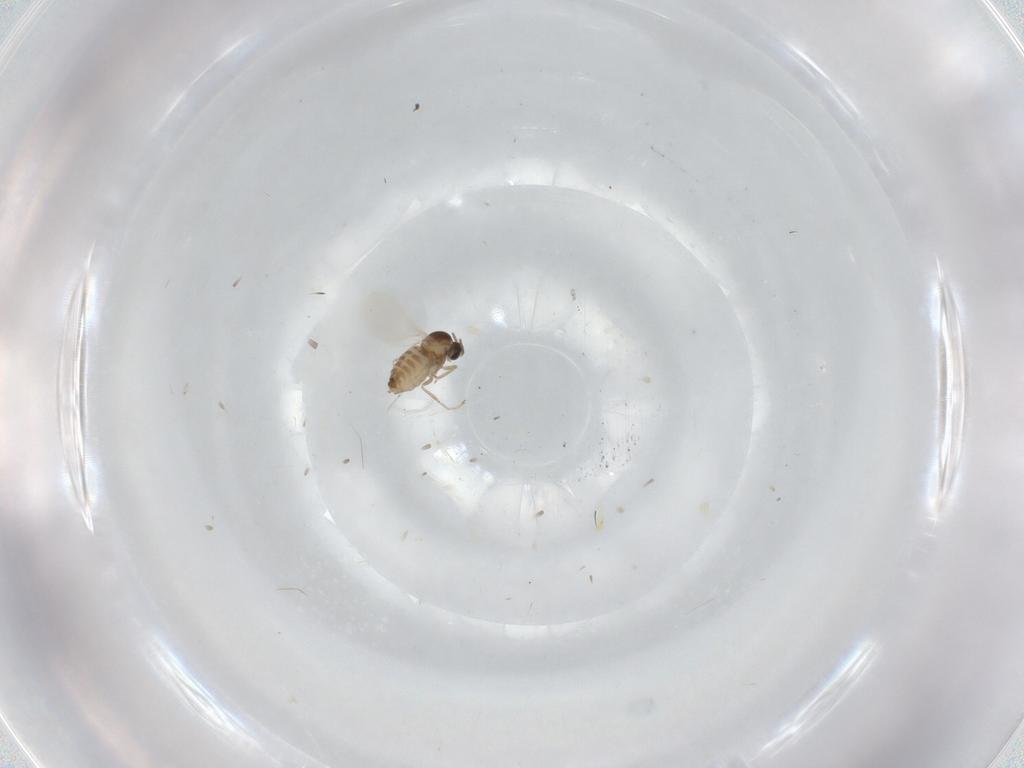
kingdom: Animalia
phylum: Arthropoda
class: Insecta
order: Diptera
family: Cecidomyiidae
